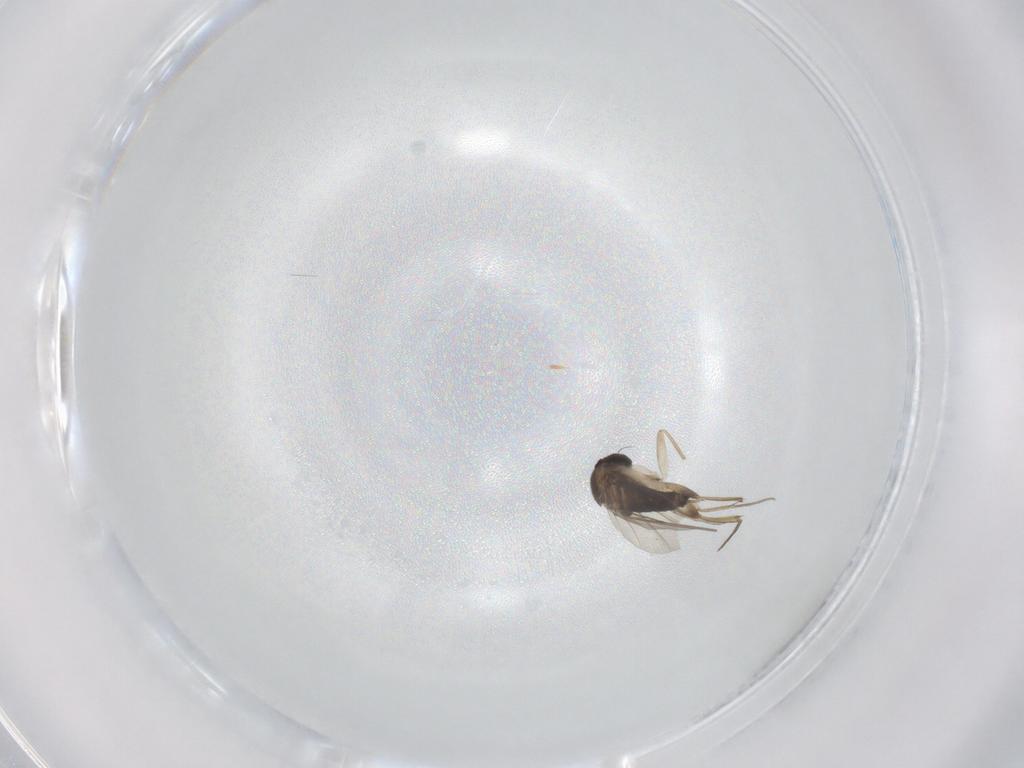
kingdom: Animalia
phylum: Arthropoda
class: Insecta
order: Diptera
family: Phoridae
